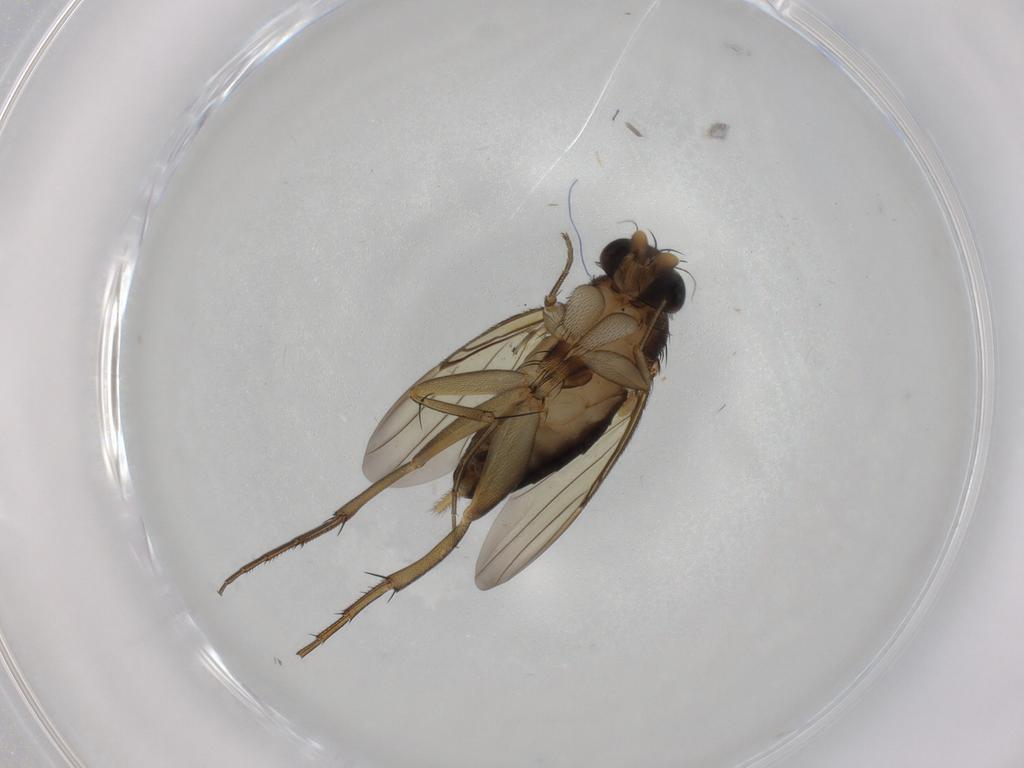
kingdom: Animalia
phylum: Arthropoda
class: Insecta
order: Diptera
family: Phoridae
